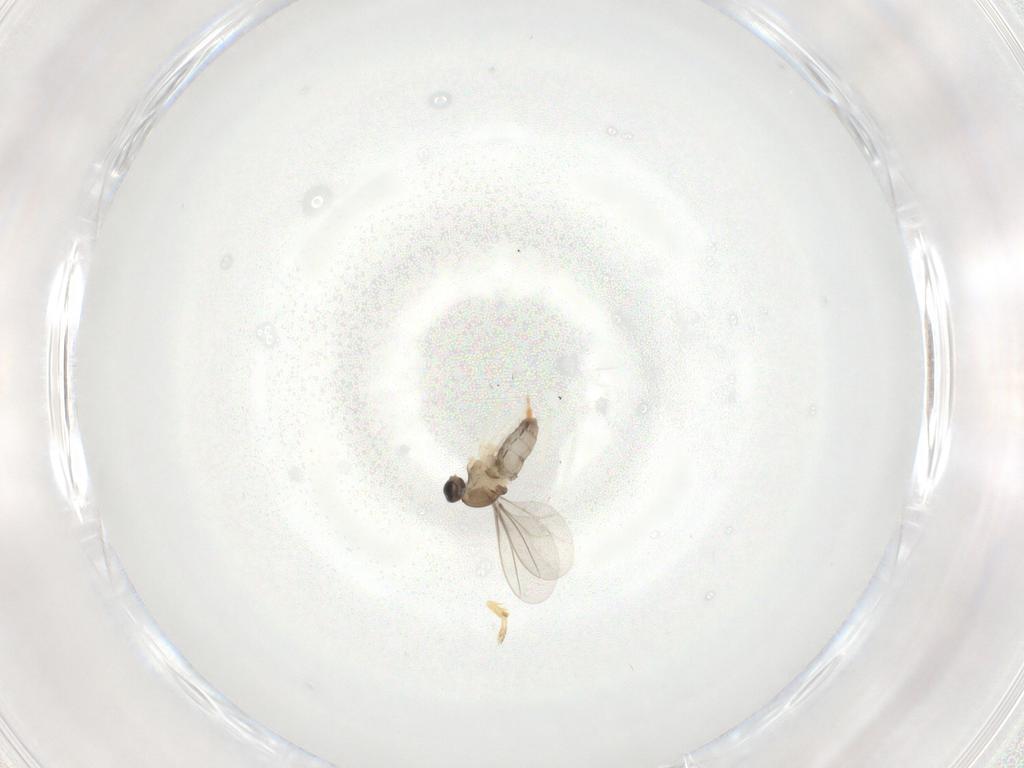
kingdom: Animalia
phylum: Arthropoda
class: Insecta
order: Diptera
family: Cecidomyiidae
